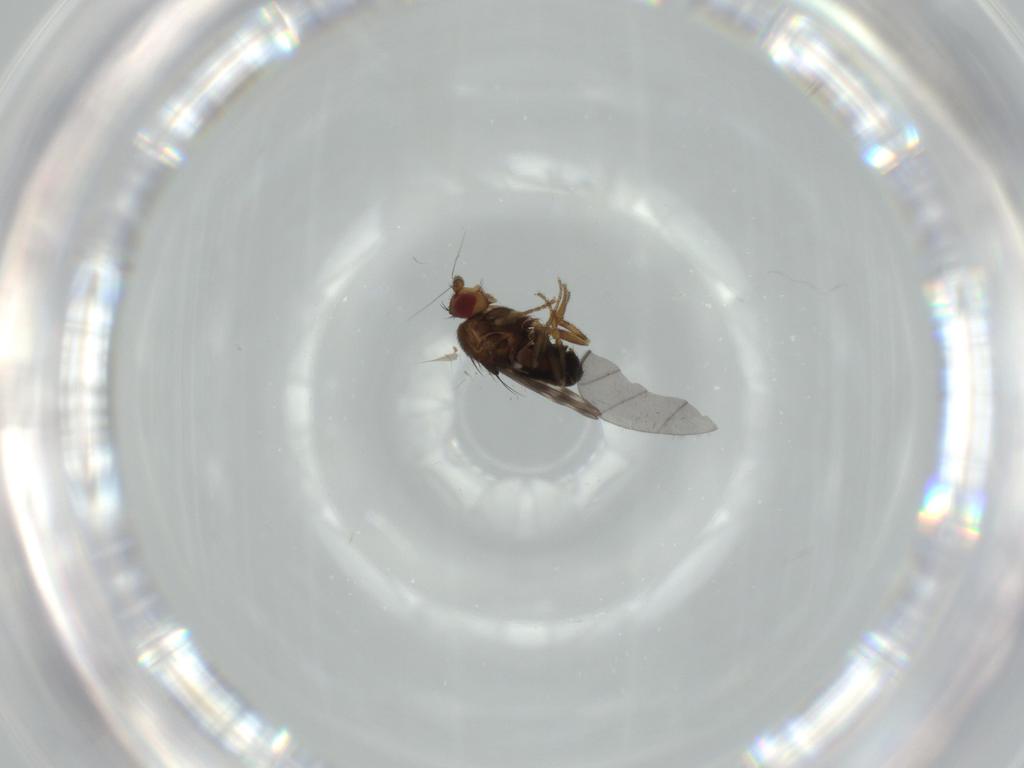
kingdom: Animalia
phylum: Arthropoda
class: Insecta
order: Diptera
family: Sphaeroceridae
